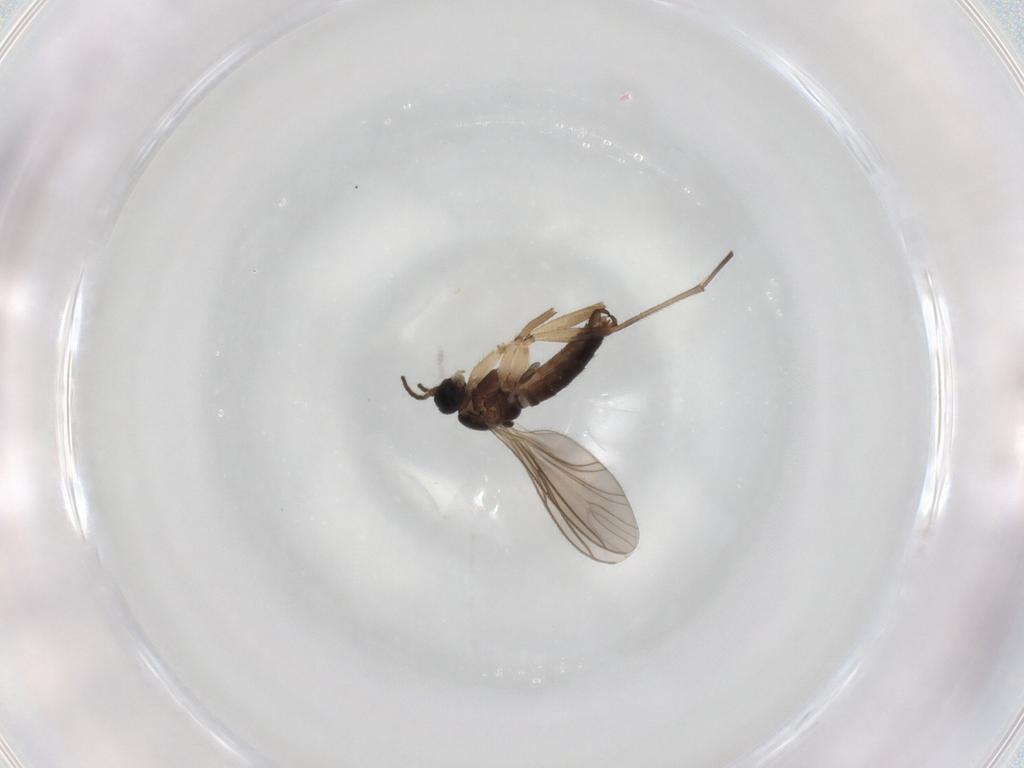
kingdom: Animalia
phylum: Arthropoda
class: Insecta
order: Diptera
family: Sciaridae
